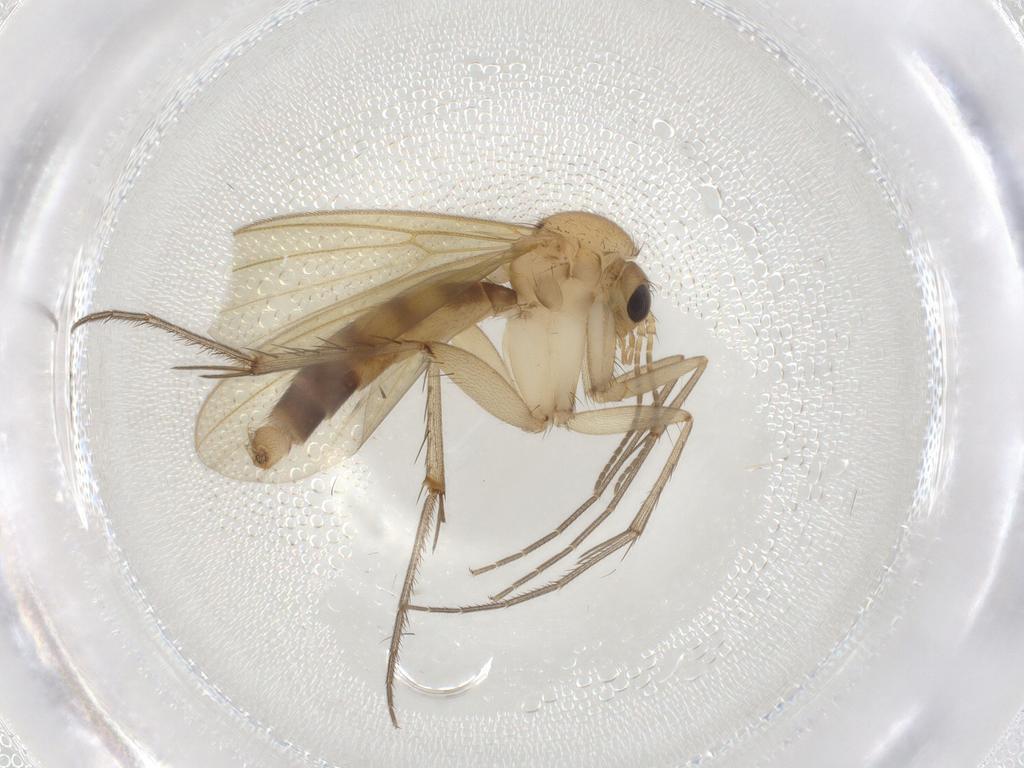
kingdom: Animalia
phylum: Arthropoda
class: Insecta
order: Diptera
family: Mycetophilidae
